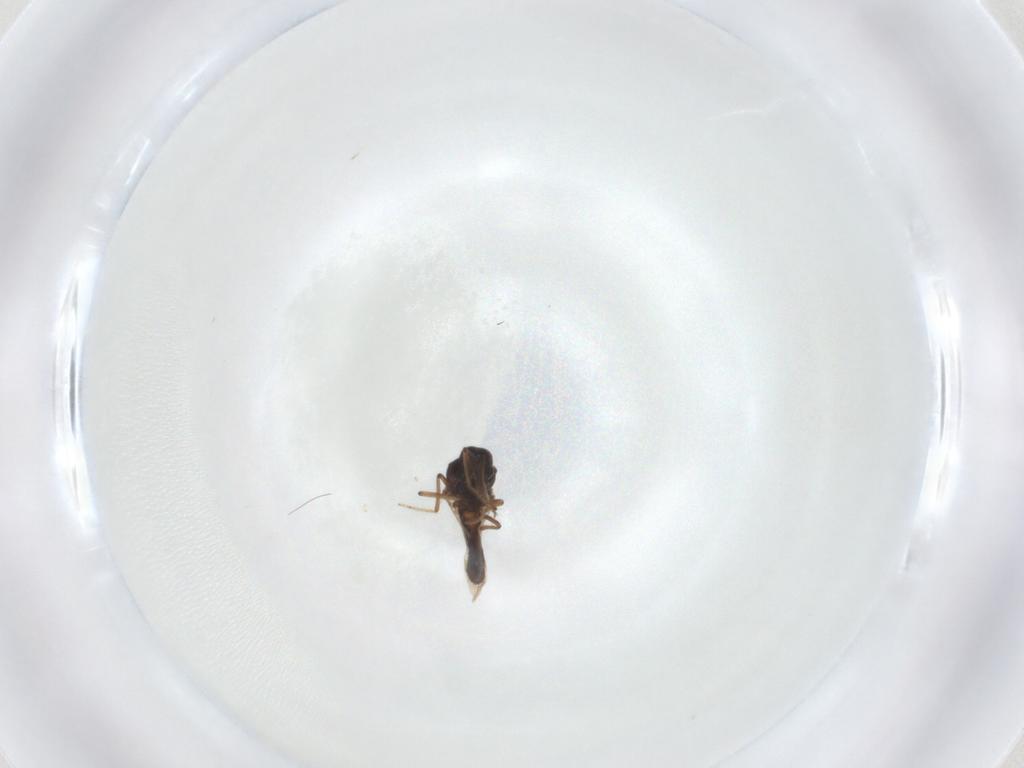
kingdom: Animalia
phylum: Arthropoda
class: Insecta
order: Diptera
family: Ceratopogonidae
